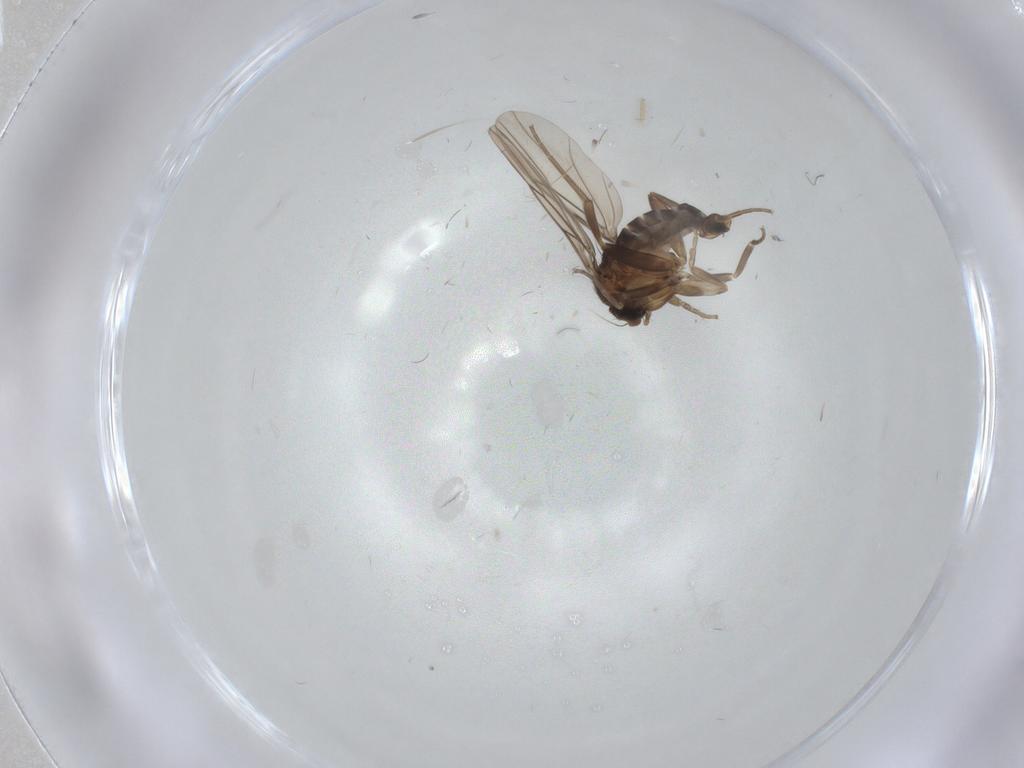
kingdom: Animalia
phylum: Arthropoda
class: Insecta
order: Diptera
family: Phoridae
